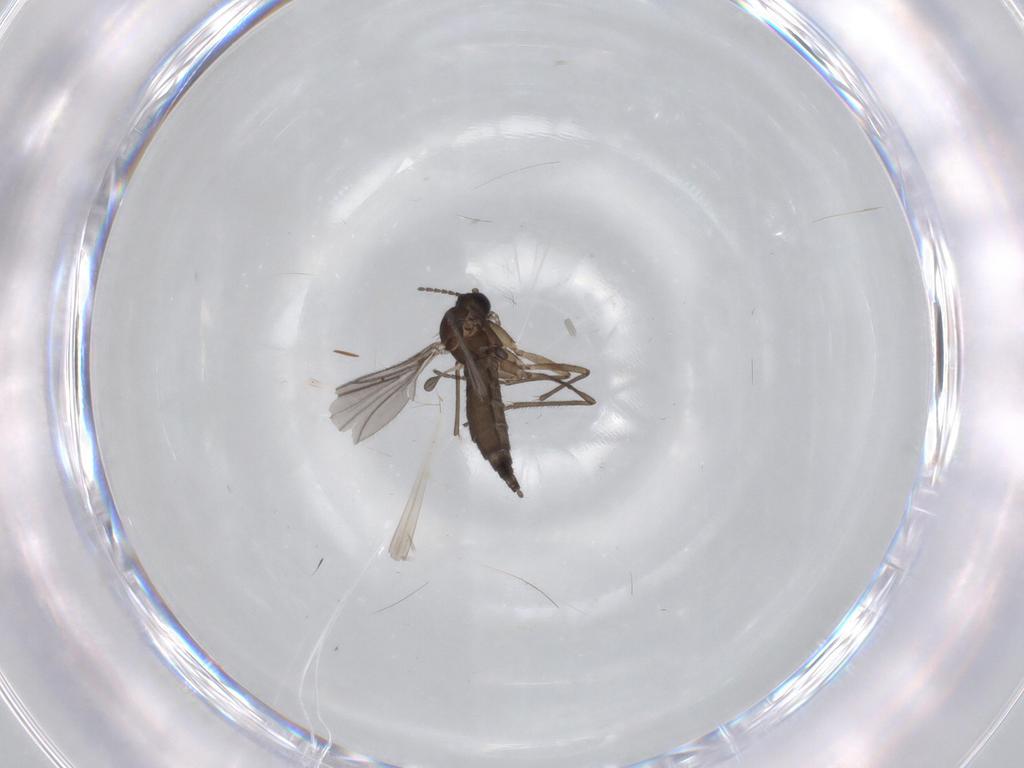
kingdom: Animalia
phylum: Arthropoda
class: Insecta
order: Diptera
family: Sciaridae
